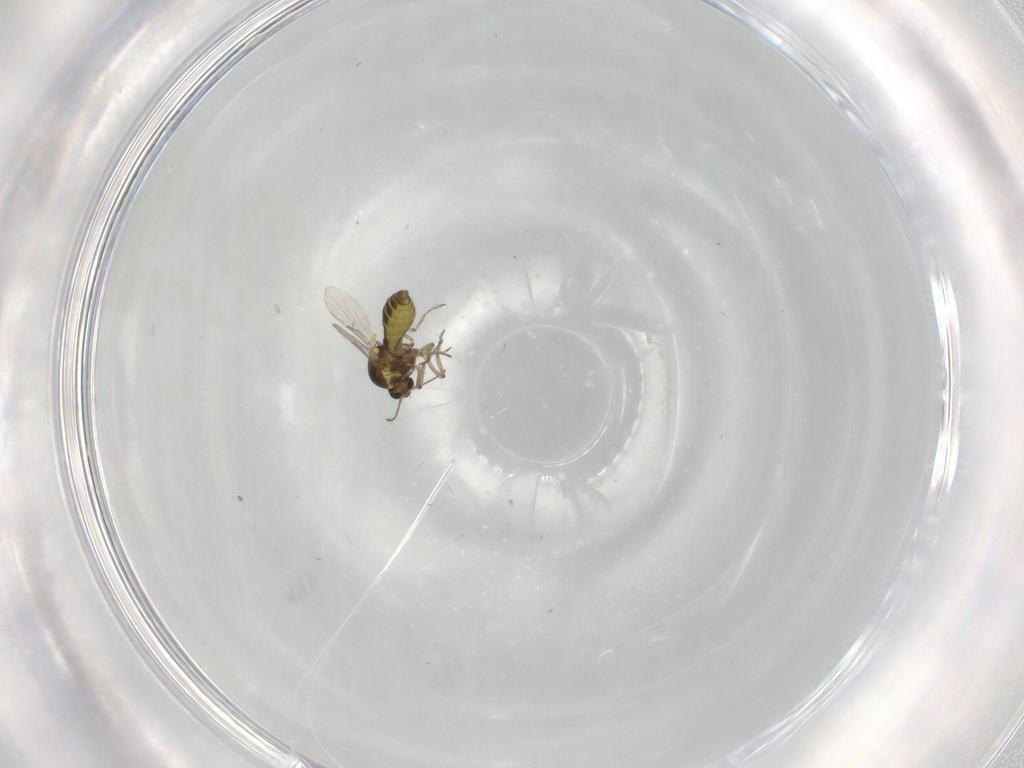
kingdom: Animalia
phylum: Arthropoda
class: Insecta
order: Diptera
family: Ceratopogonidae
